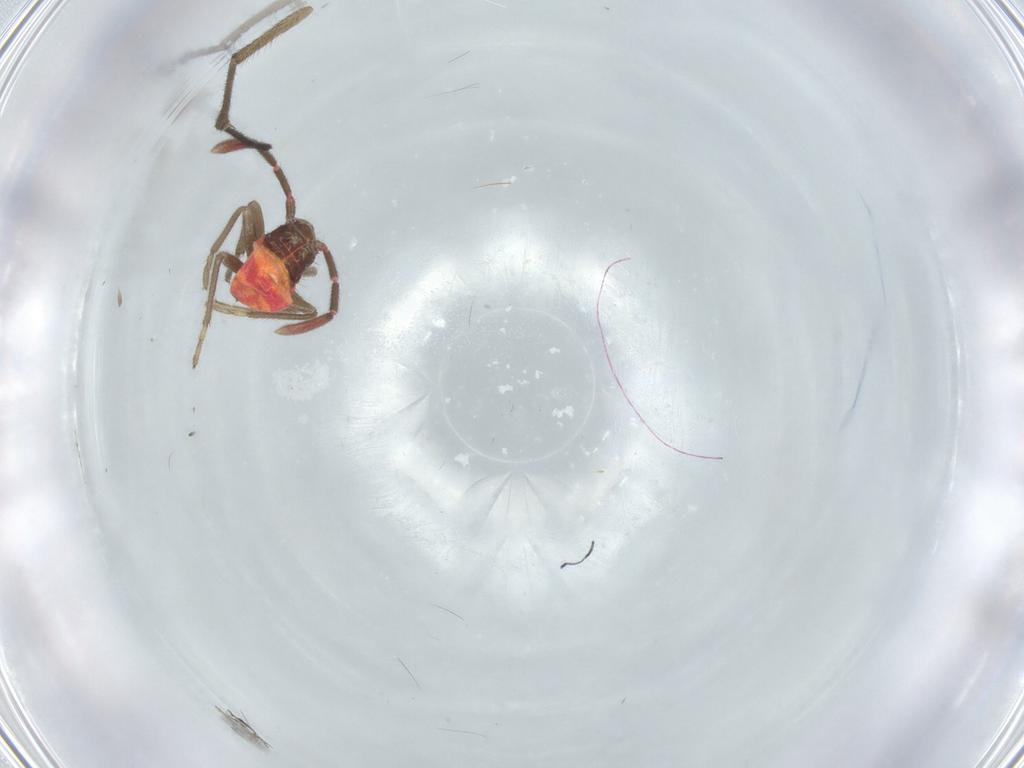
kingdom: Animalia
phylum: Arthropoda
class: Insecta
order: Hemiptera
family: Rhyparochromidae
